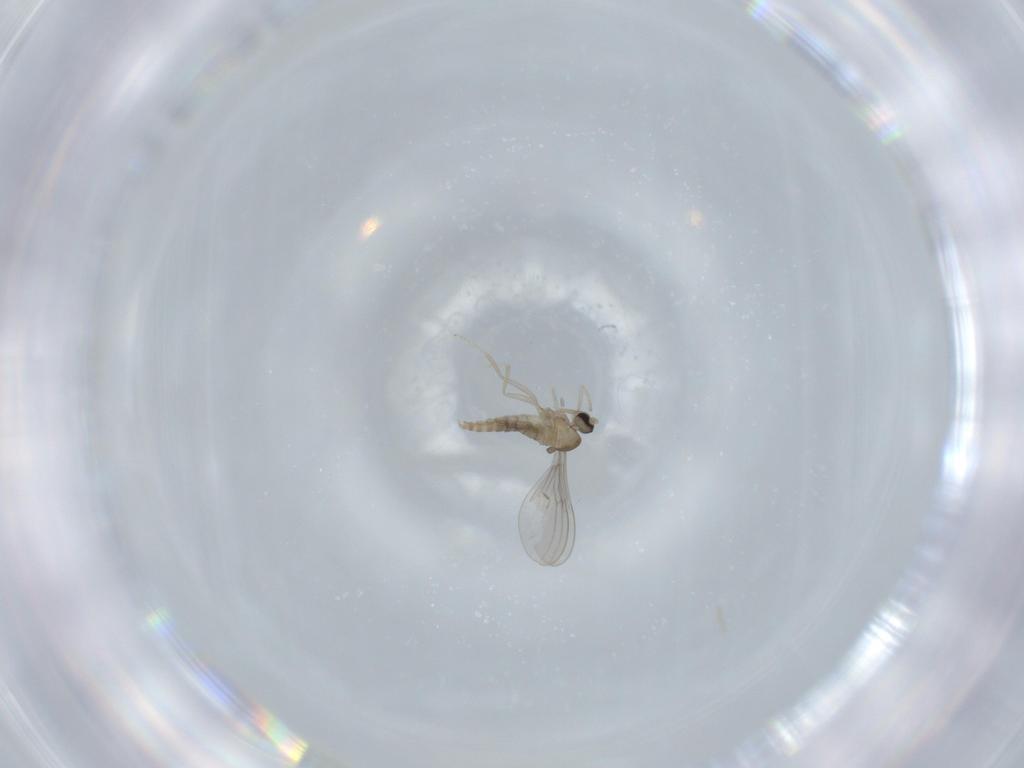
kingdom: Animalia
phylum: Arthropoda
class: Insecta
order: Diptera
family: Cecidomyiidae
